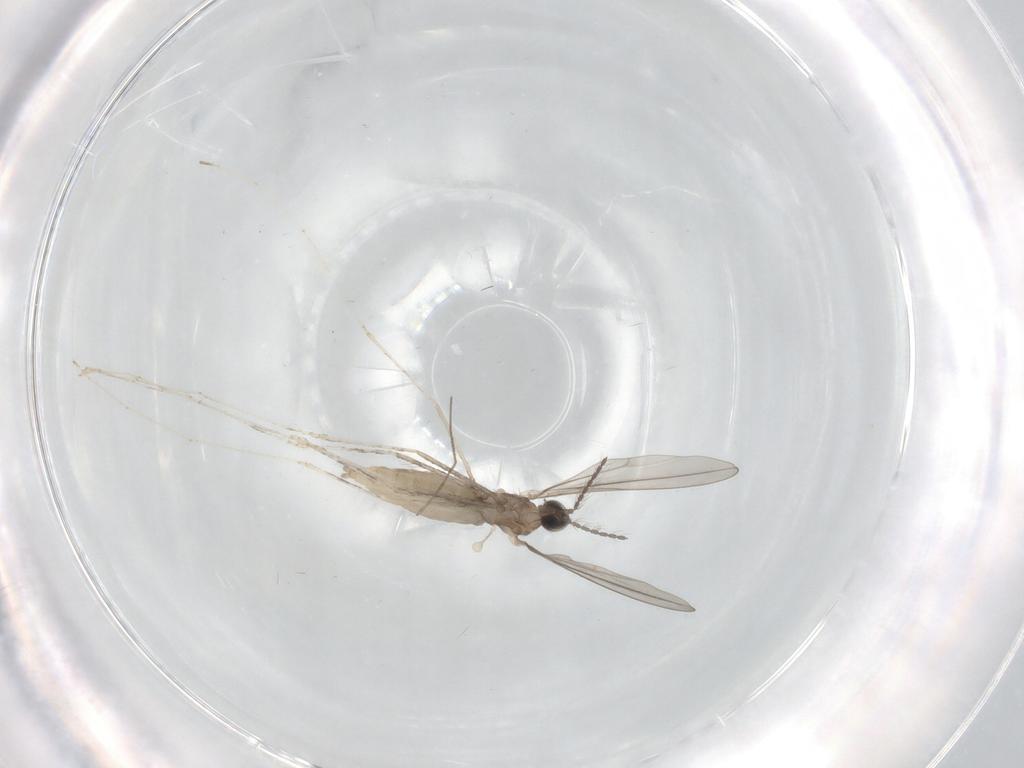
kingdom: Animalia
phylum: Arthropoda
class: Insecta
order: Diptera
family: Cecidomyiidae
